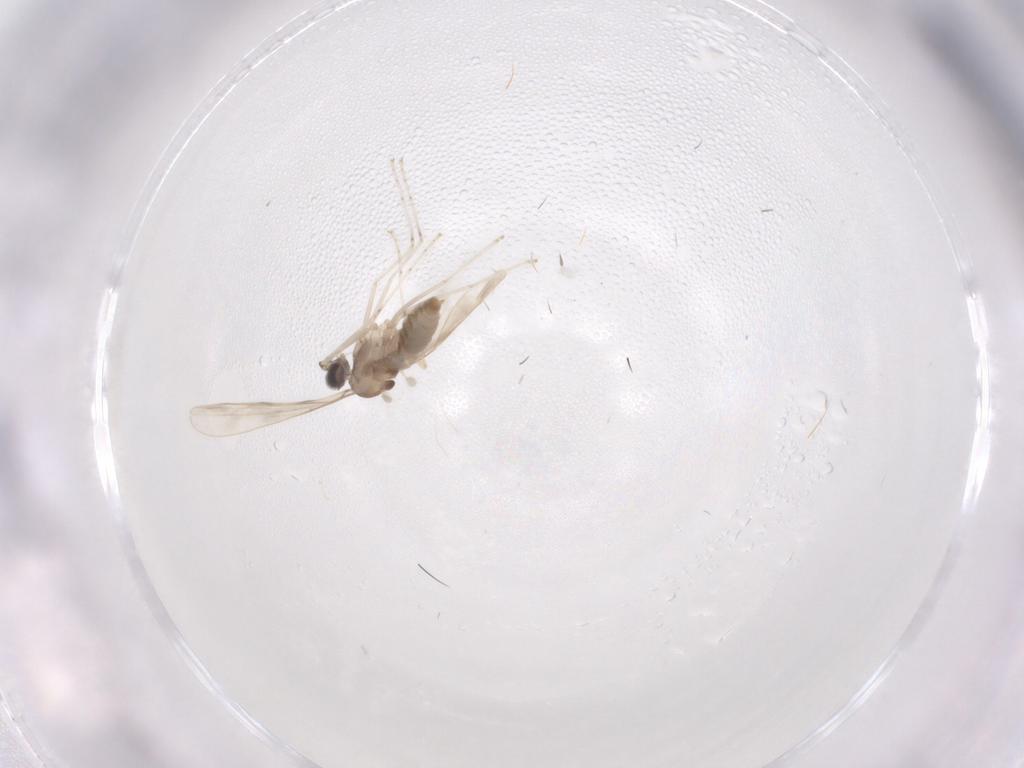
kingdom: Animalia
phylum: Arthropoda
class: Insecta
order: Diptera
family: Cecidomyiidae
